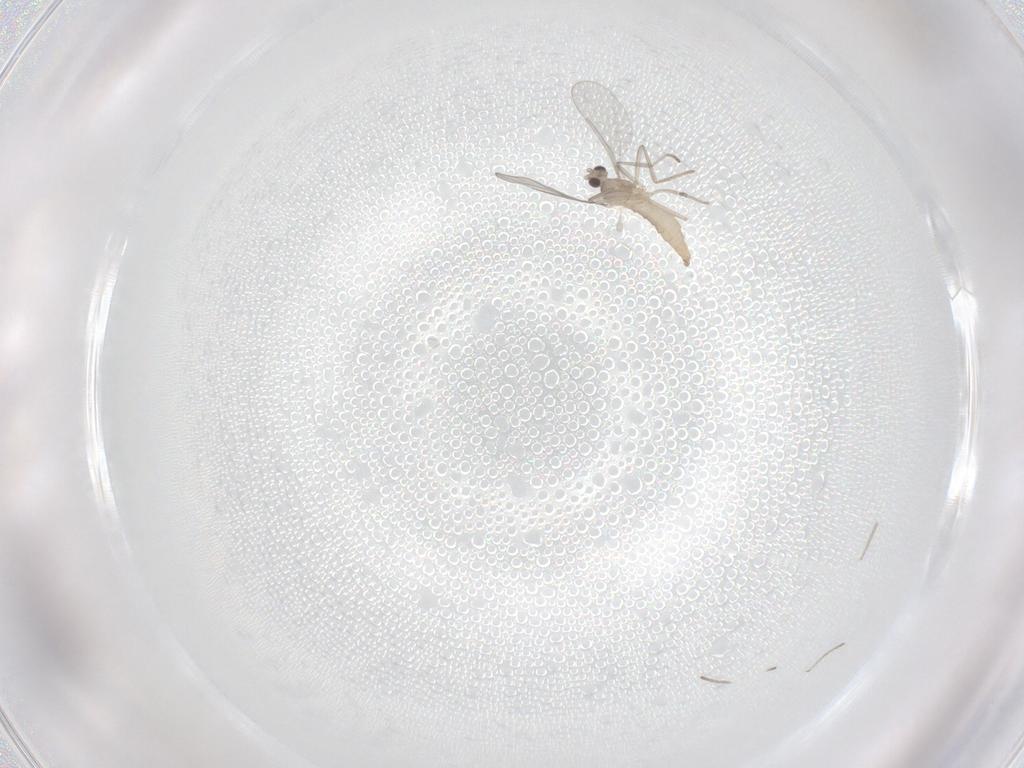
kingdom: Animalia
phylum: Arthropoda
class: Insecta
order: Diptera
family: Cecidomyiidae
